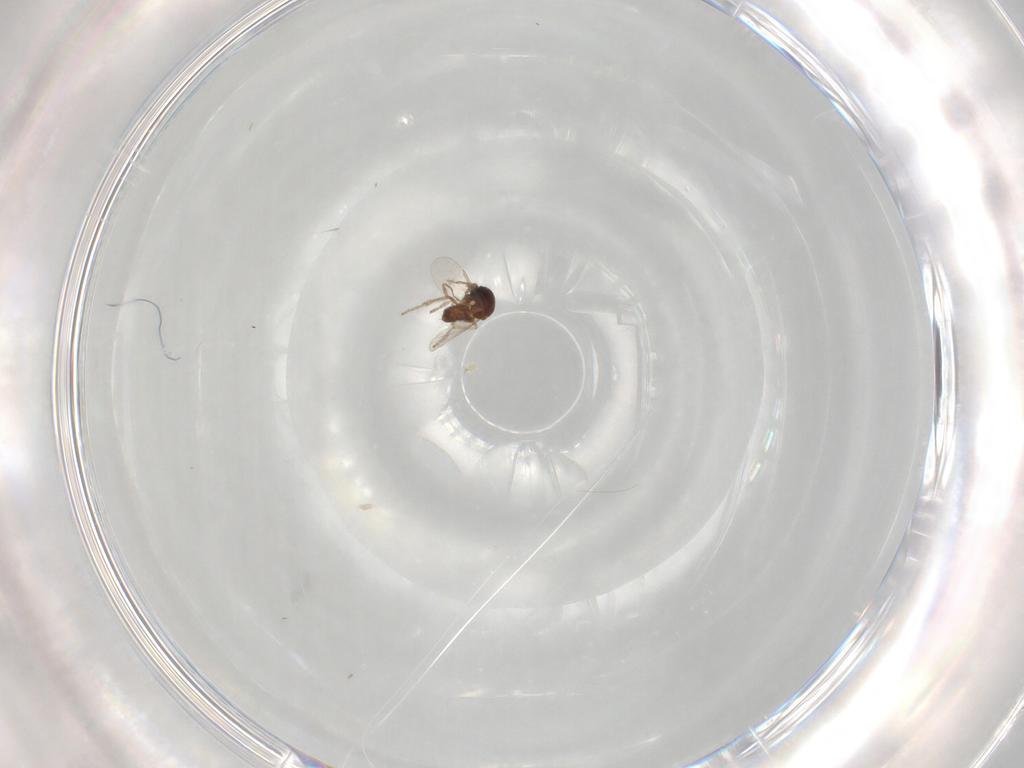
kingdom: Animalia
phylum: Arthropoda
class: Insecta
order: Diptera
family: Ceratopogonidae
